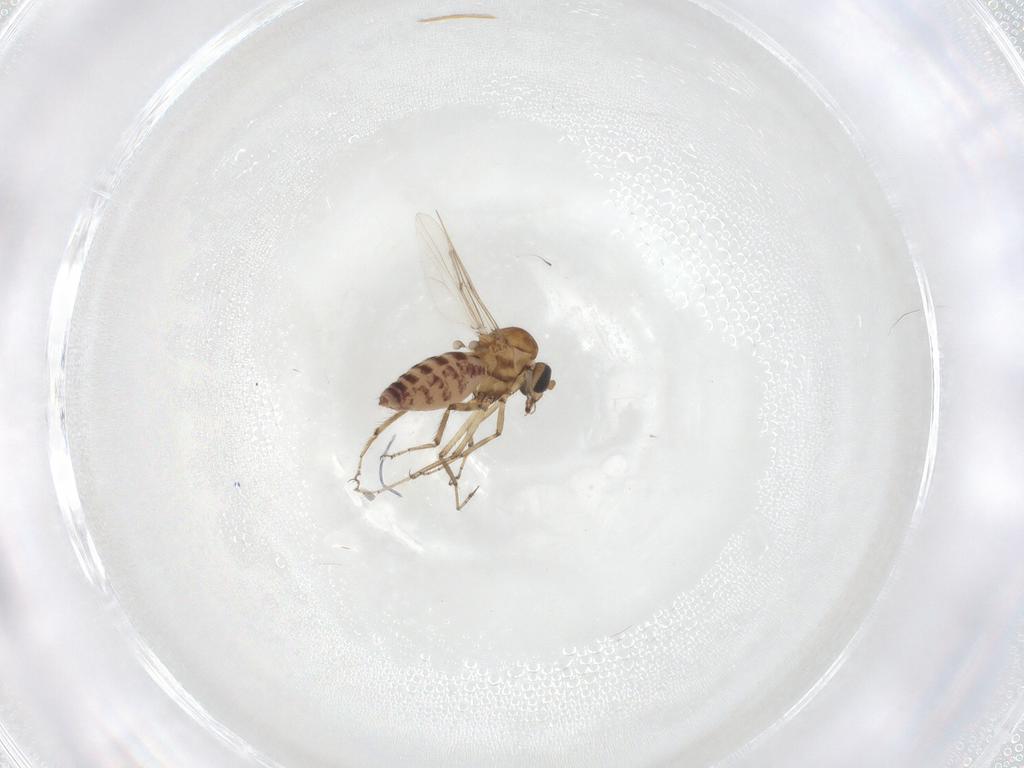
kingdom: Animalia
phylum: Arthropoda
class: Insecta
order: Diptera
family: Ceratopogonidae
